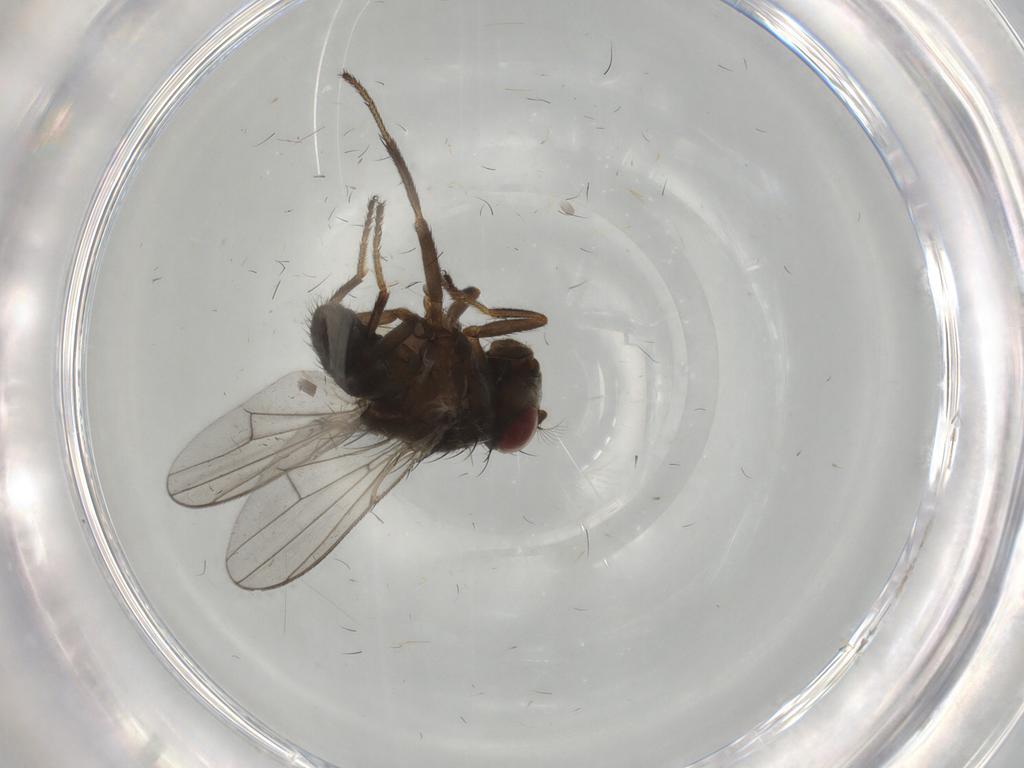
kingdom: Animalia
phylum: Arthropoda
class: Insecta
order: Diptera
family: Ephydridae
